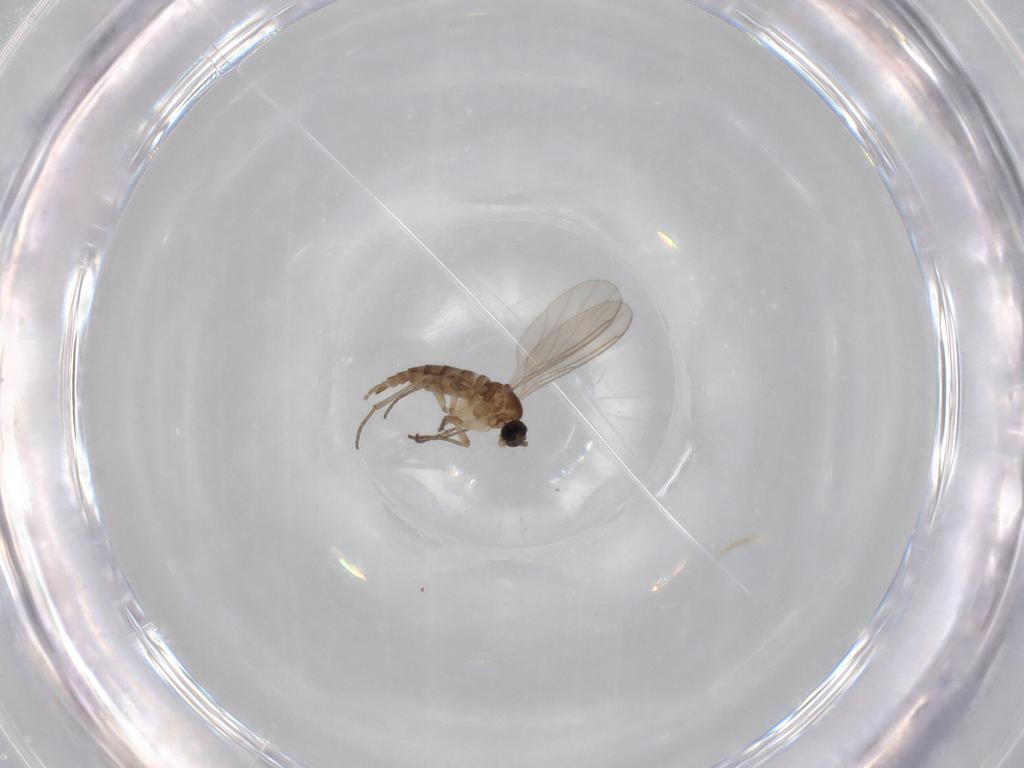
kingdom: Animalia
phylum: Arthropoda
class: Insecta
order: Diptera
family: Sciaridae
